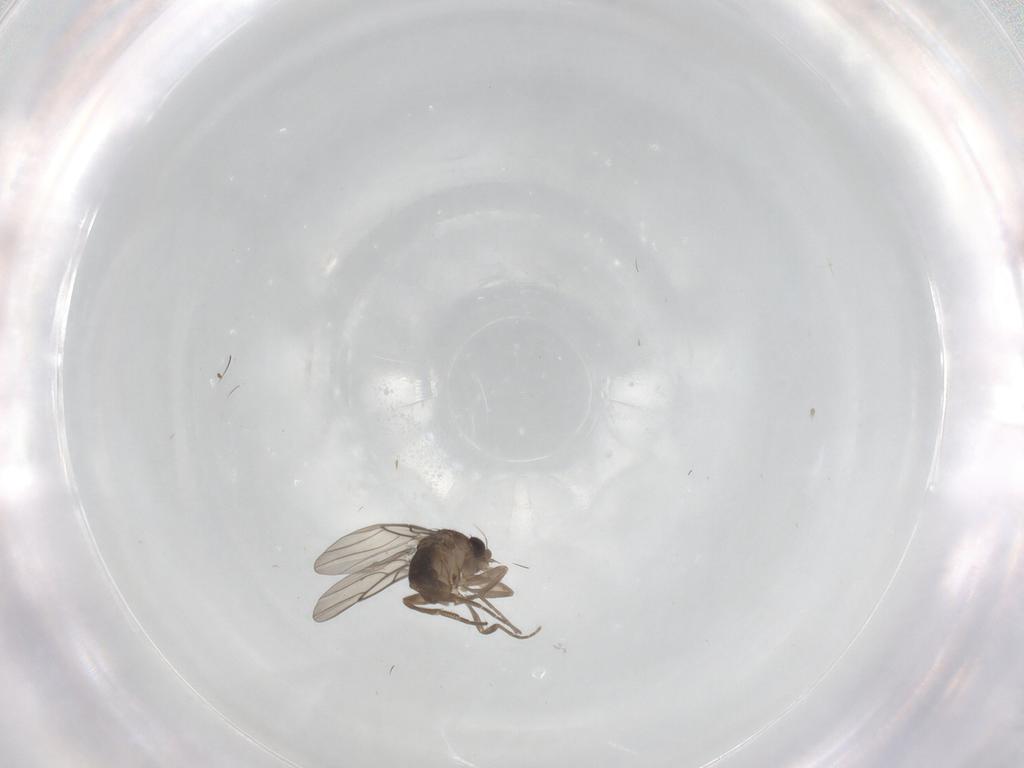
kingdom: Animalia
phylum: Arthropoda
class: Insecta
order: Diptera
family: Phoridae
